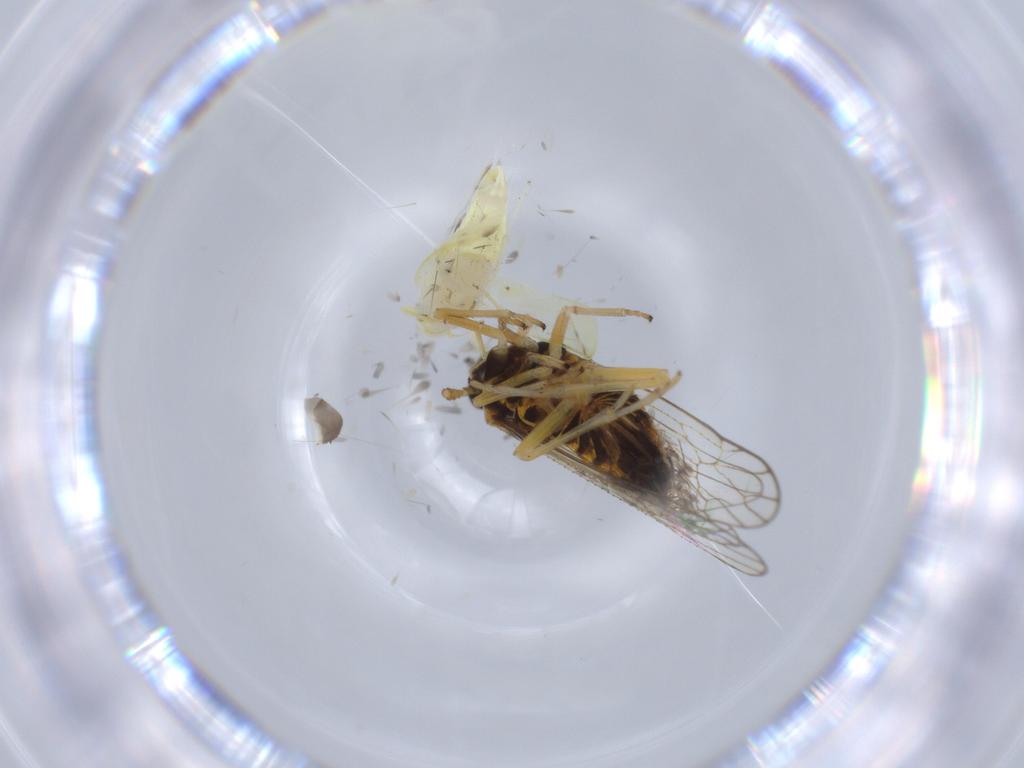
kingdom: Animalia
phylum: Arthropoda
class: Insecta
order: Hemiptera
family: Cicadellidae
